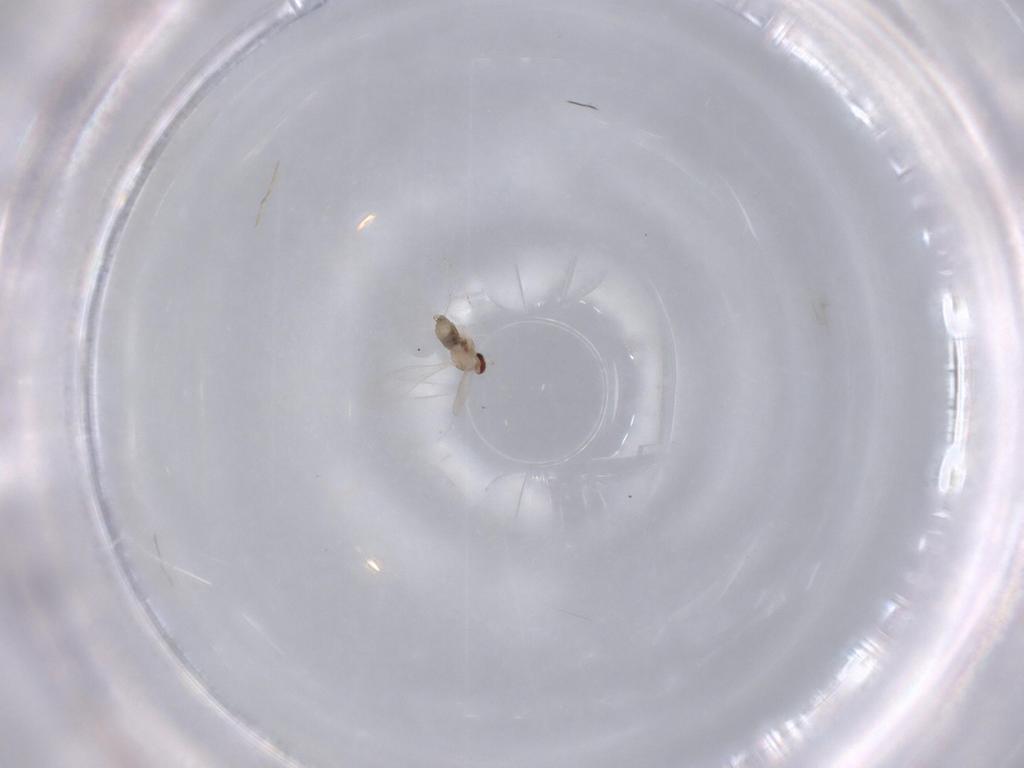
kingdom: Animalia
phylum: Arthropoda
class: Insecta
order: Diptera
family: Cecidomyiidae
